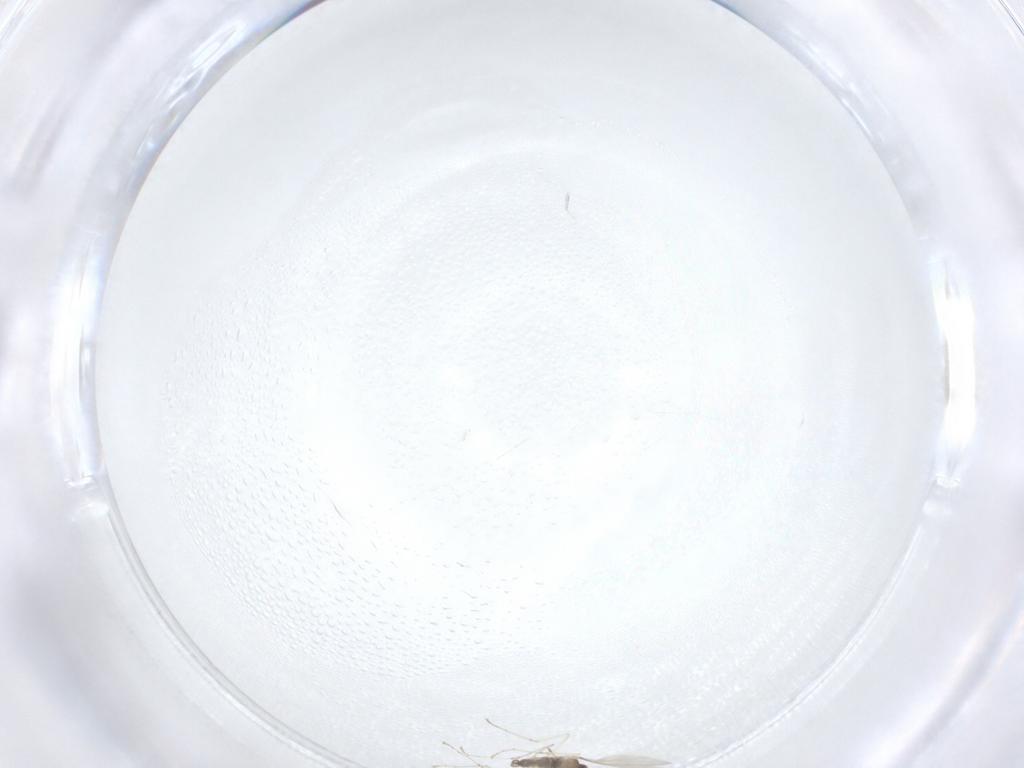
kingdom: Animalia
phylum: Arthropoda
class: Insecta
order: Diptera
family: Cecidomyiidae
